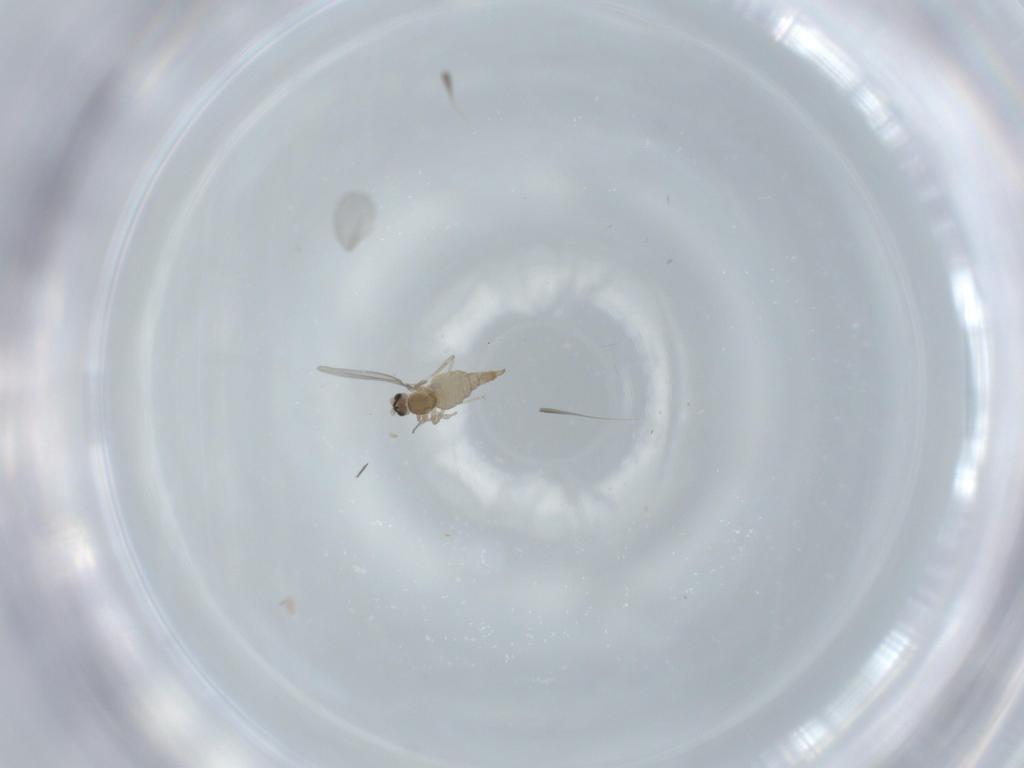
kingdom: Animalia
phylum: Arthropoda
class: Insecta
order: Diptera
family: Cecidomyiidae
